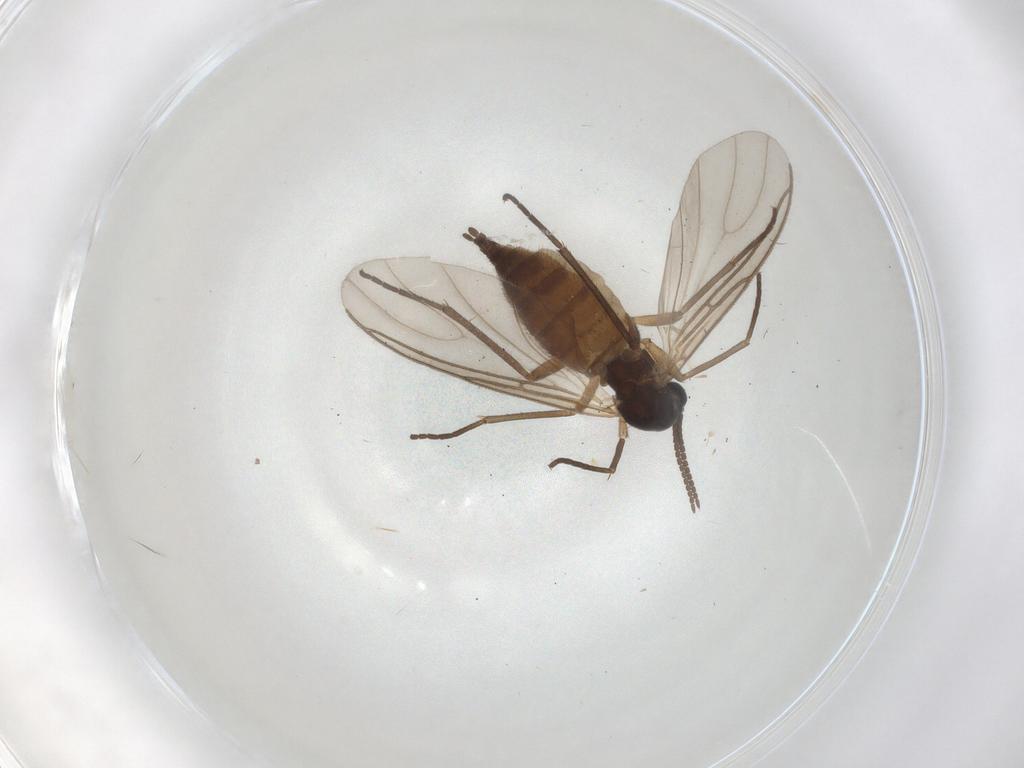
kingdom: Animalia
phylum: Arthropoda
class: Insecta
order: Diptera
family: Sciaridae
